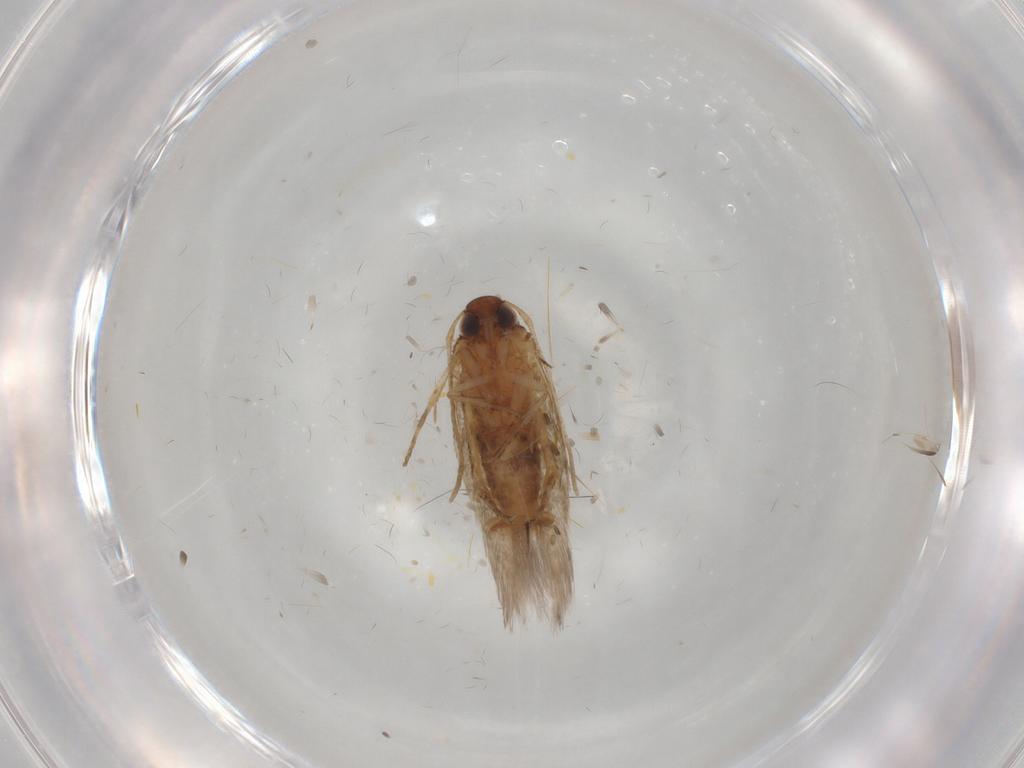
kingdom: Animalia
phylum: Arthropoda
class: Insecta
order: Lepidoptera
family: Cosmopterigidae
